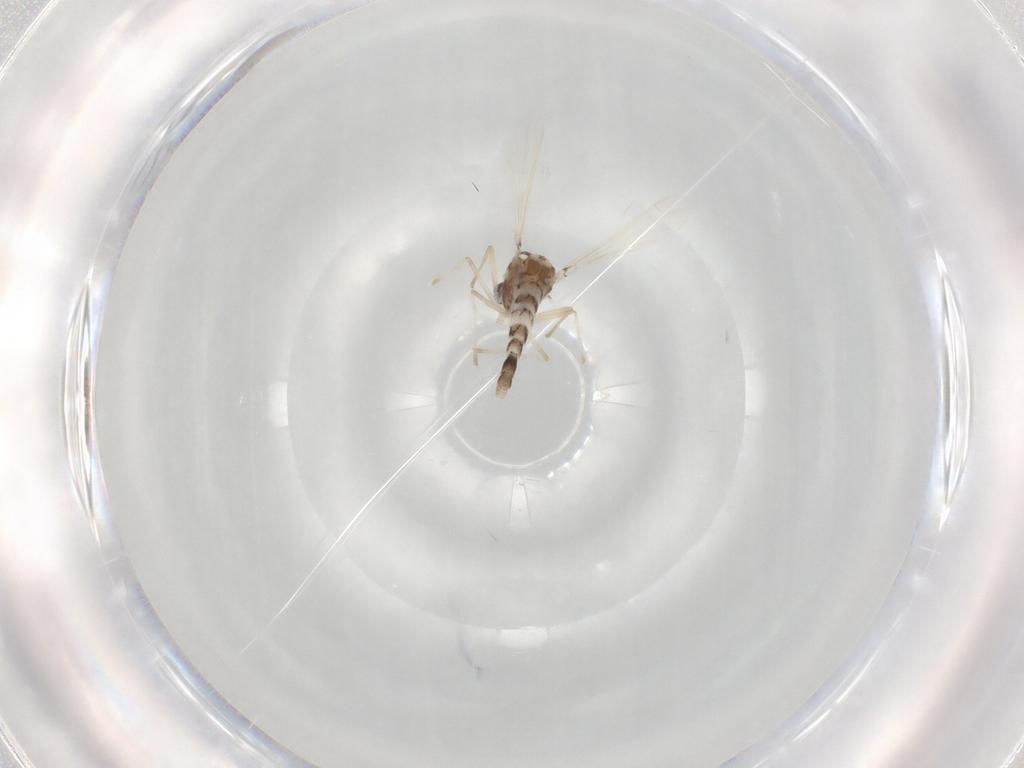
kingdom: Animalia
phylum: Arthropoda
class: Insecta
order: Diptera
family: Chironomidae
